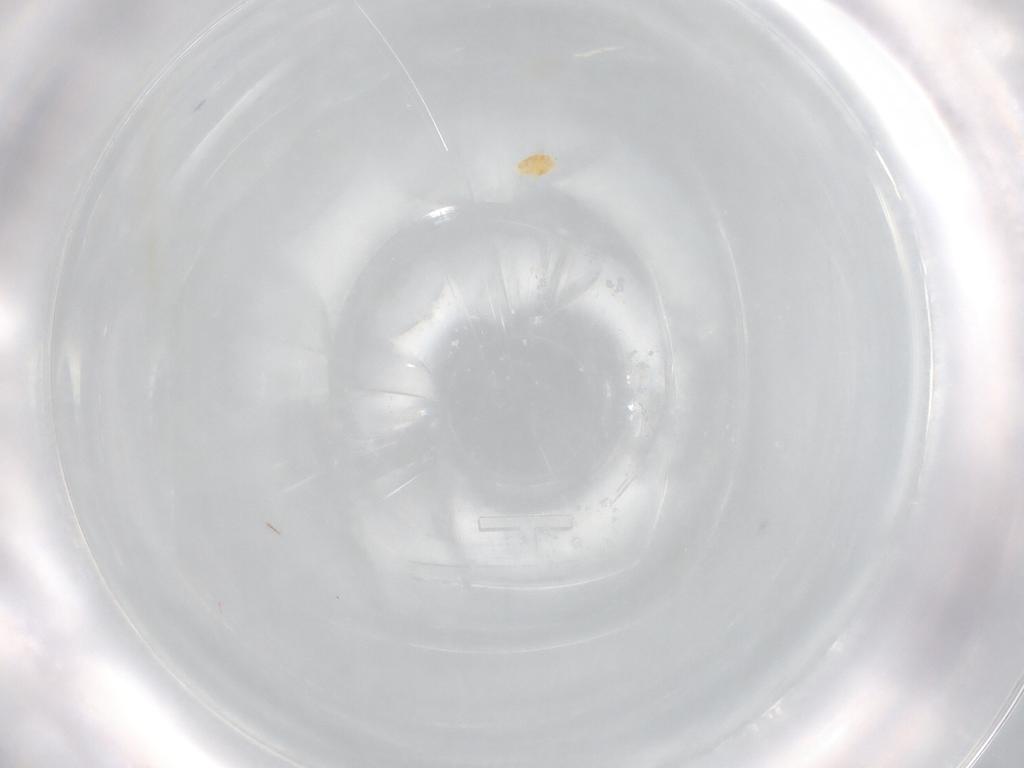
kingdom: Animalia
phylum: Arthropoda
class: Arachnida
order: Trombidiformes
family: Tydeidae
